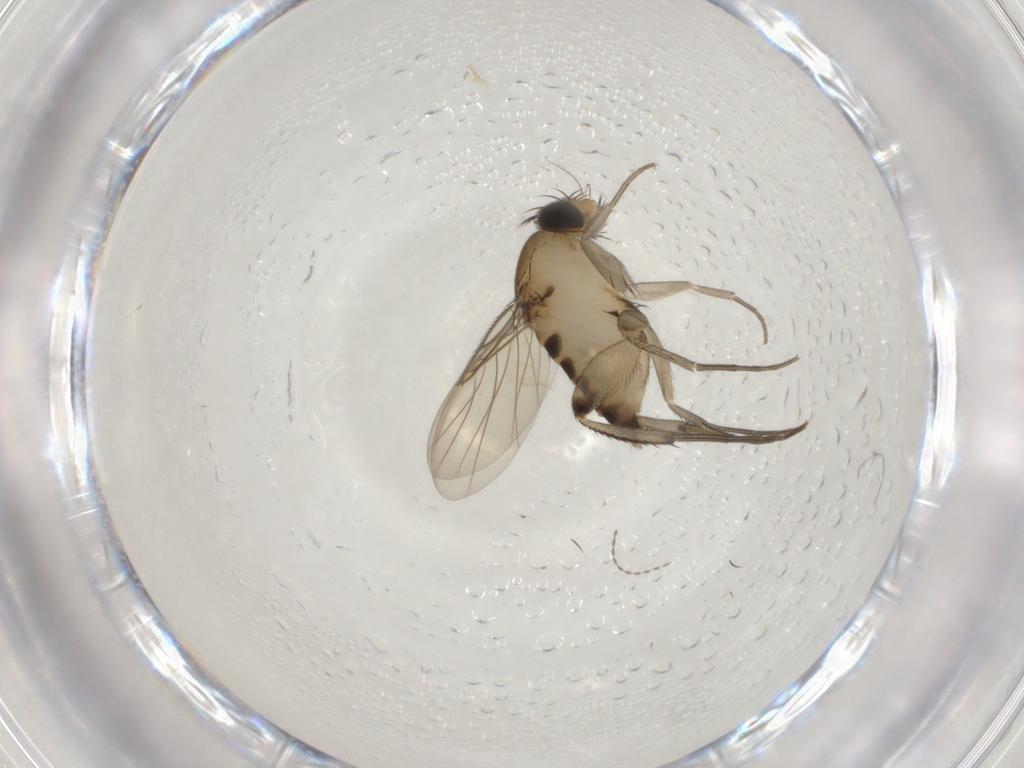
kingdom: Animalia
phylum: Arthropoda
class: Insecta
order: Diptera
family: Phoridae
